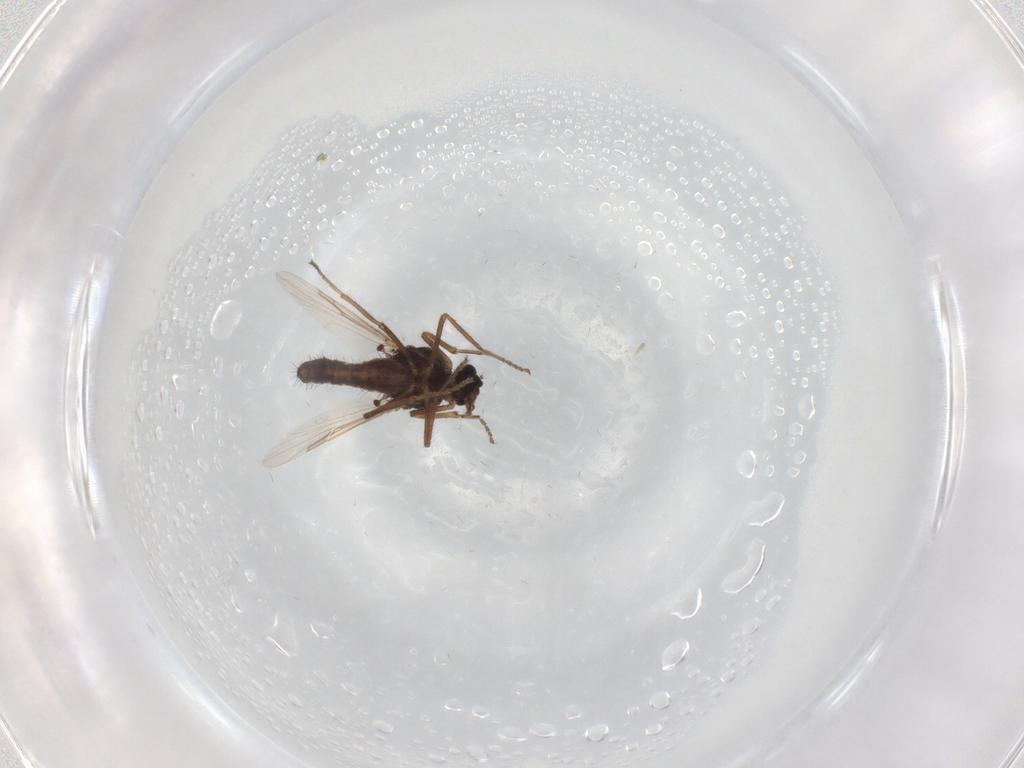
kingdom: Animalia
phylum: Arthropoda
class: Insecta
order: Diptera
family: Ceratopogonidae
